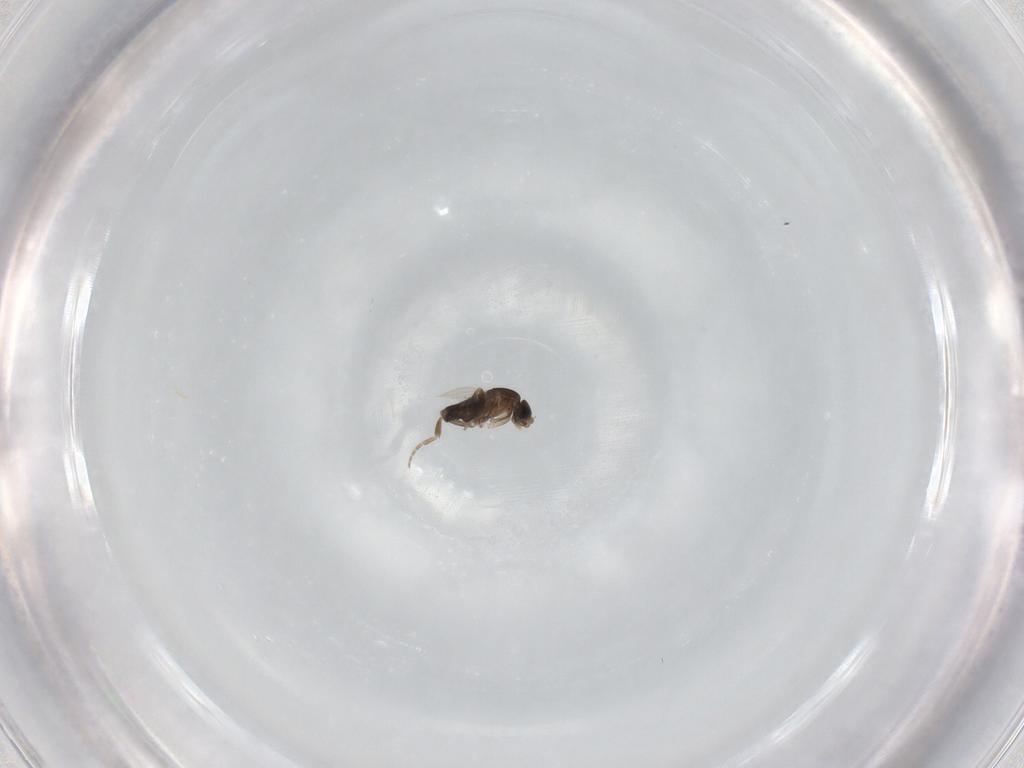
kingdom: Animalia
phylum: Arthropoda
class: Insecta
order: Diptera
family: Phoridae
